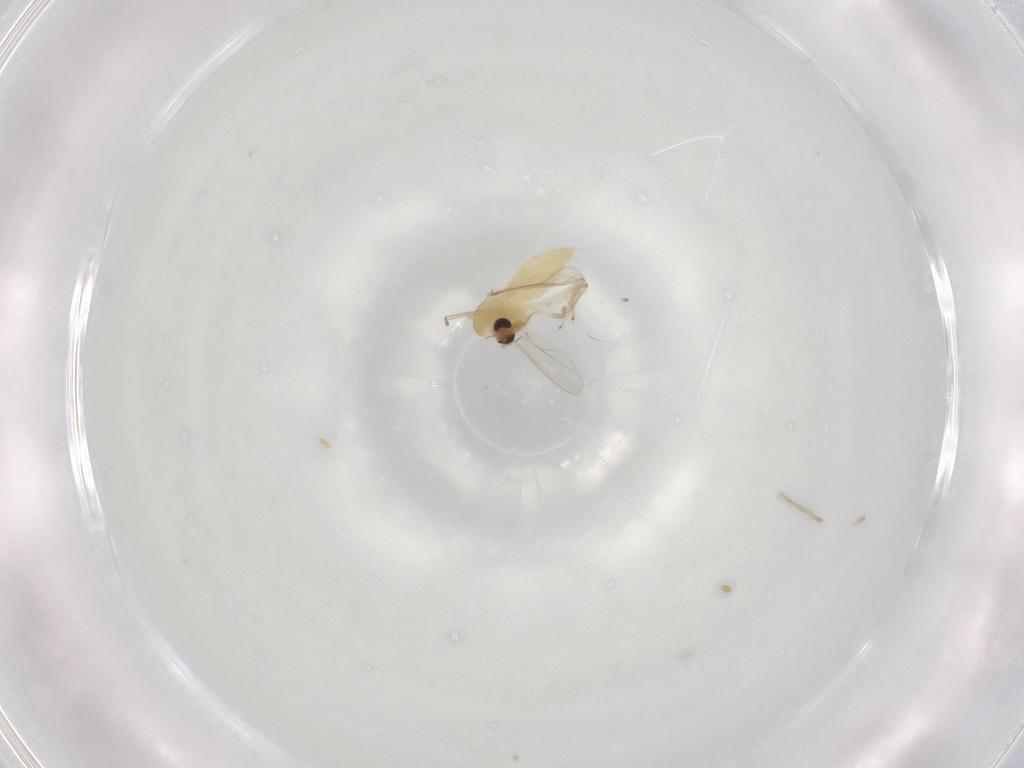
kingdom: Animalia
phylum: Arthropoda
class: Insecta
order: Diptera
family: Chironomidae
